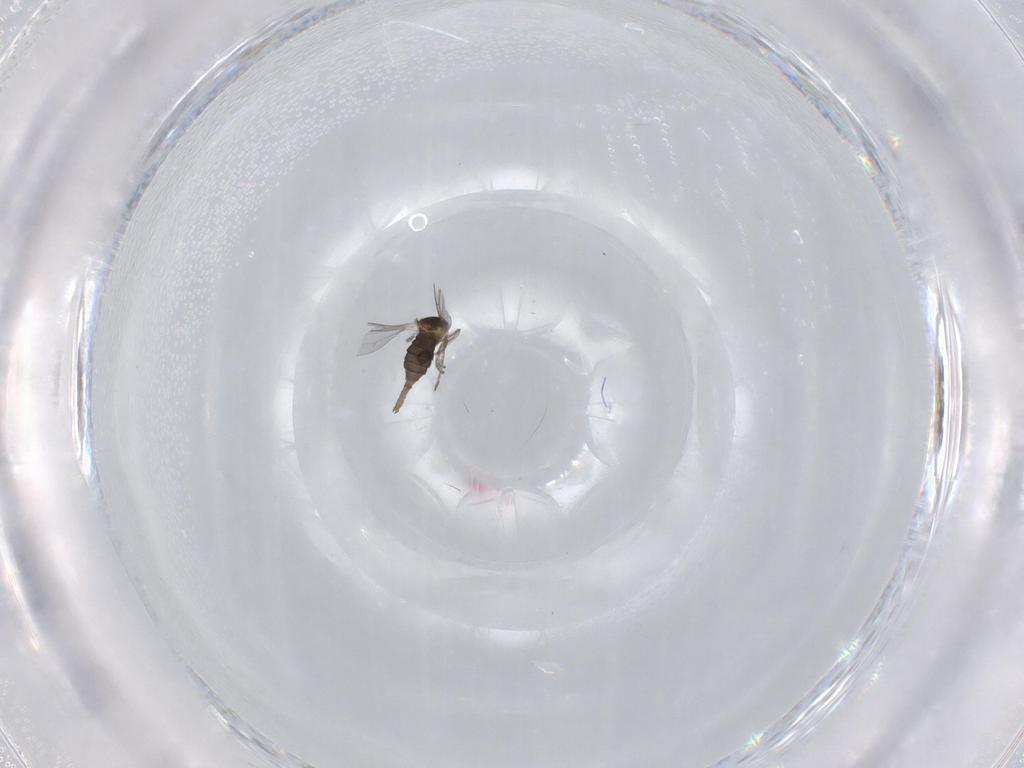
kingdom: Animalia
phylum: Arthropoda
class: Insecta
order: Diptera
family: Cecidomyiidae
